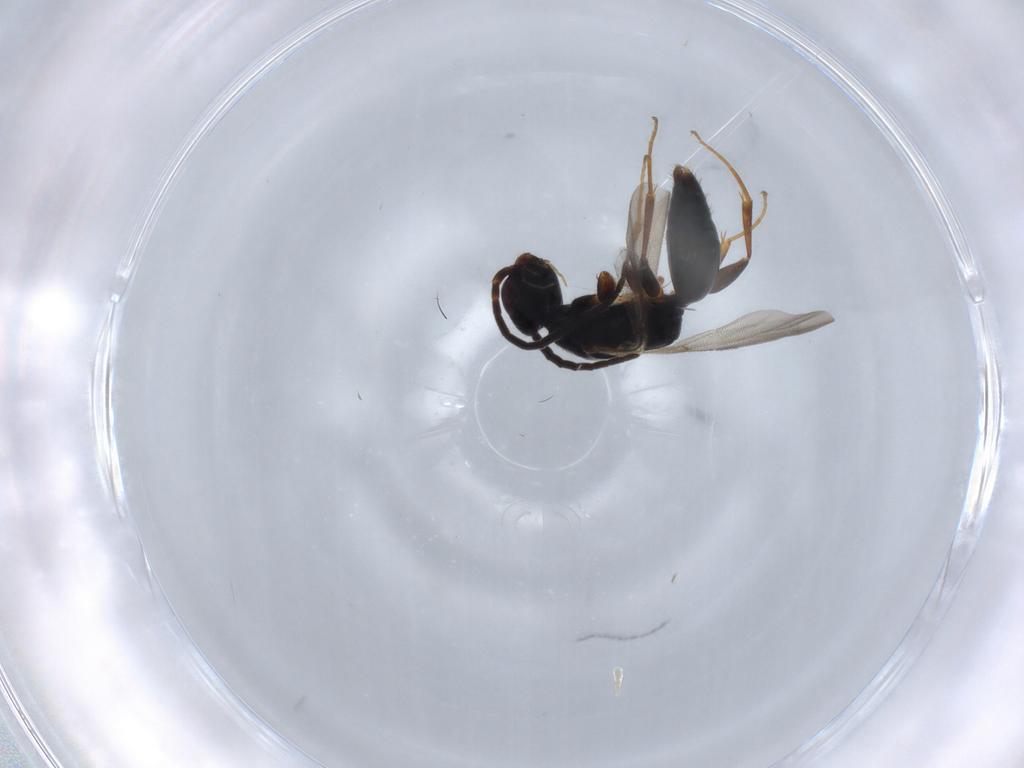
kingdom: Animalia
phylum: Arthropoda
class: Insecta
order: Hymenoptera
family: Bethylidae
